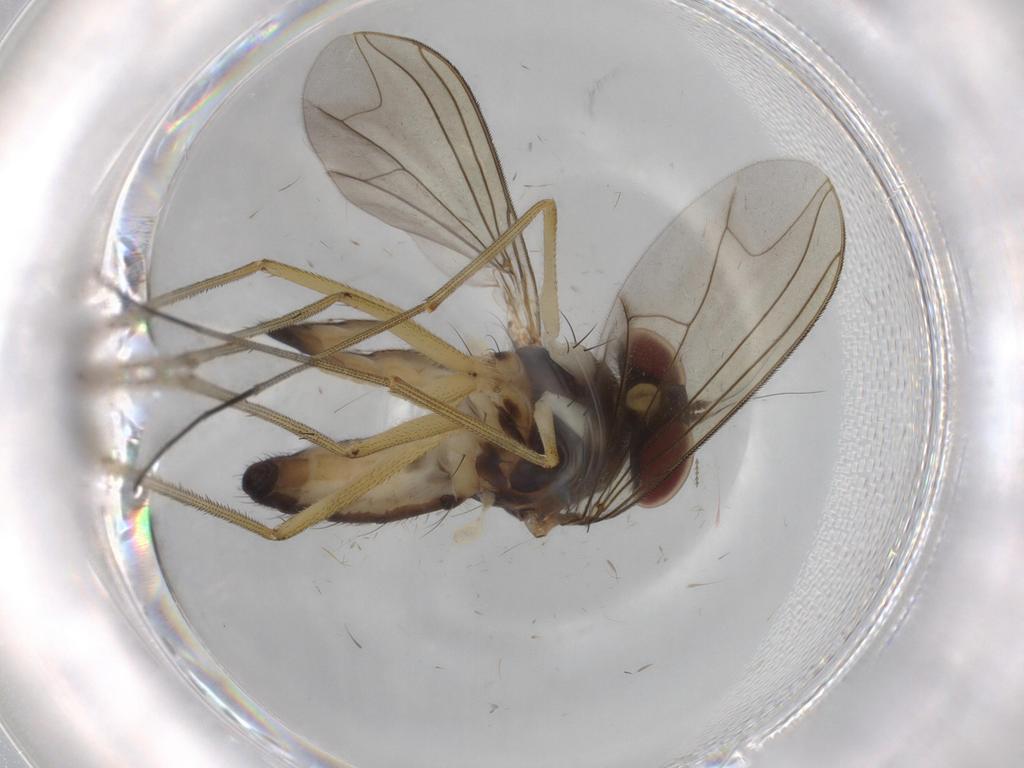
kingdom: Animalia
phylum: Arthropoda
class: Insecta
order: Diptera
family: Dolichopodidae
